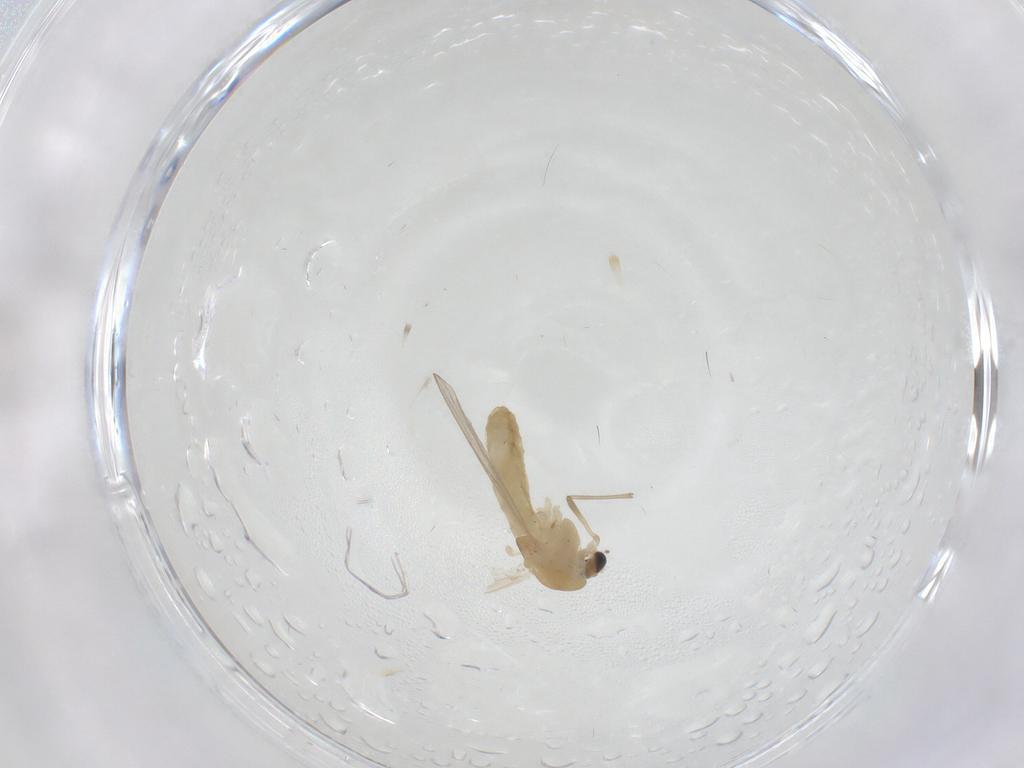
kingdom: Animalia
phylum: Arthropoda
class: Insecta
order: Diptera
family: Chironomidae
